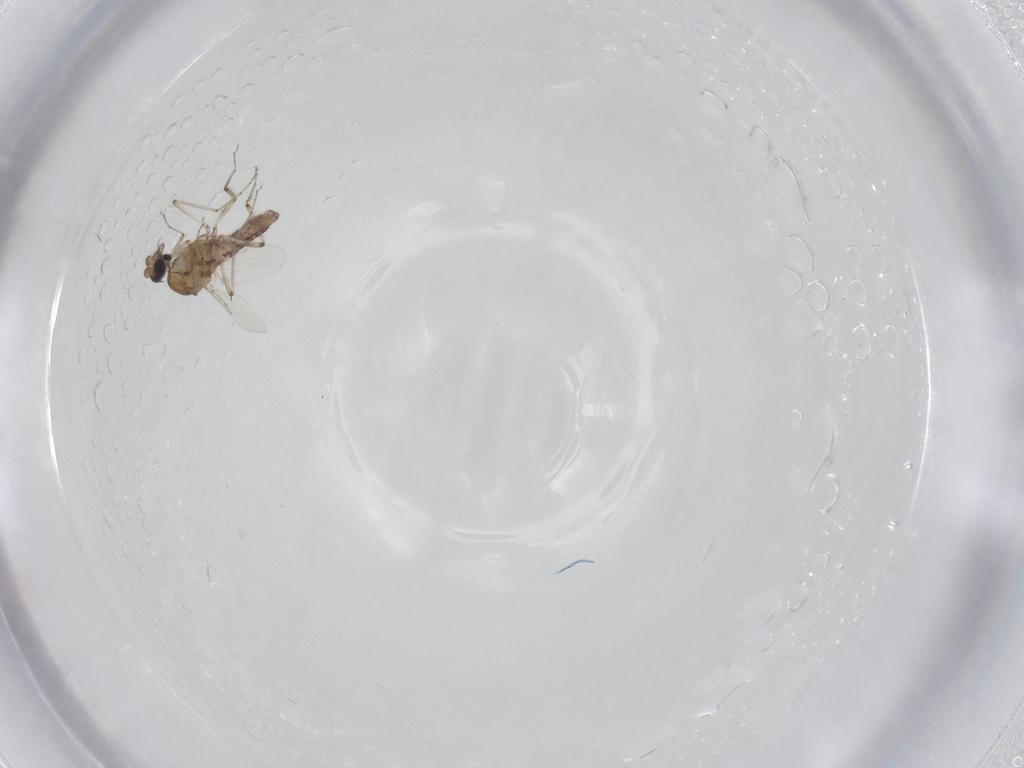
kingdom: Animalia
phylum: Arthropoda
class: Insecta
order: Diptera
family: Ceratopogonidae
